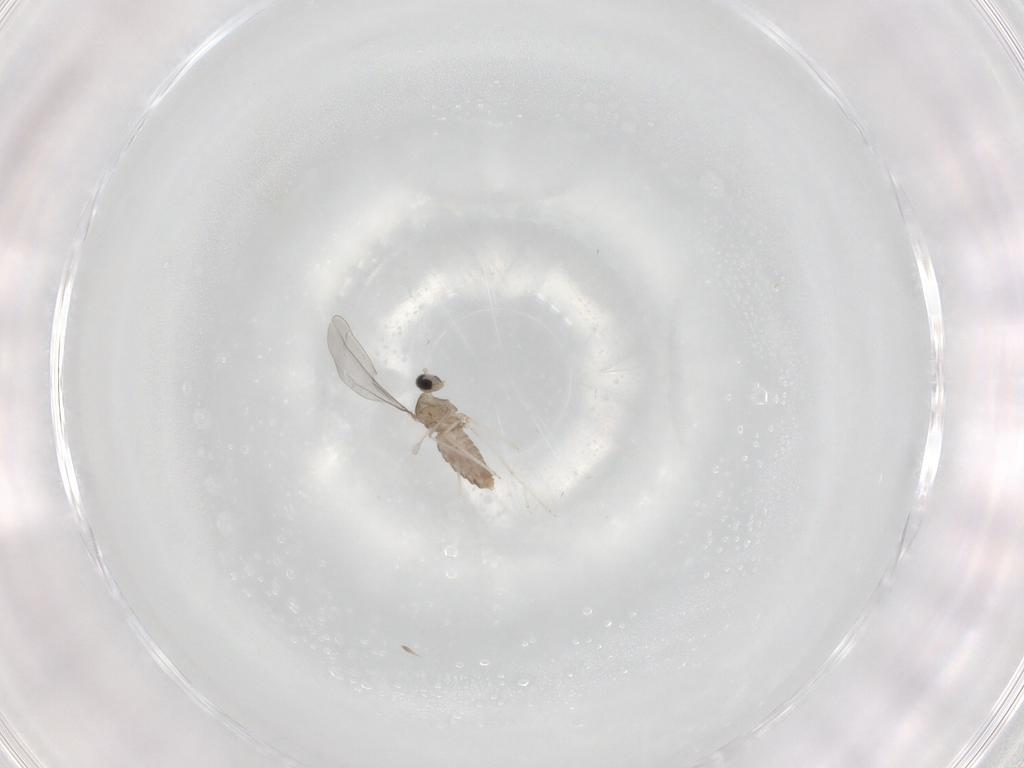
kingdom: Animalia
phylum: Arthropoda
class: Insecta
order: Diptera
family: Cecidomyiidae
